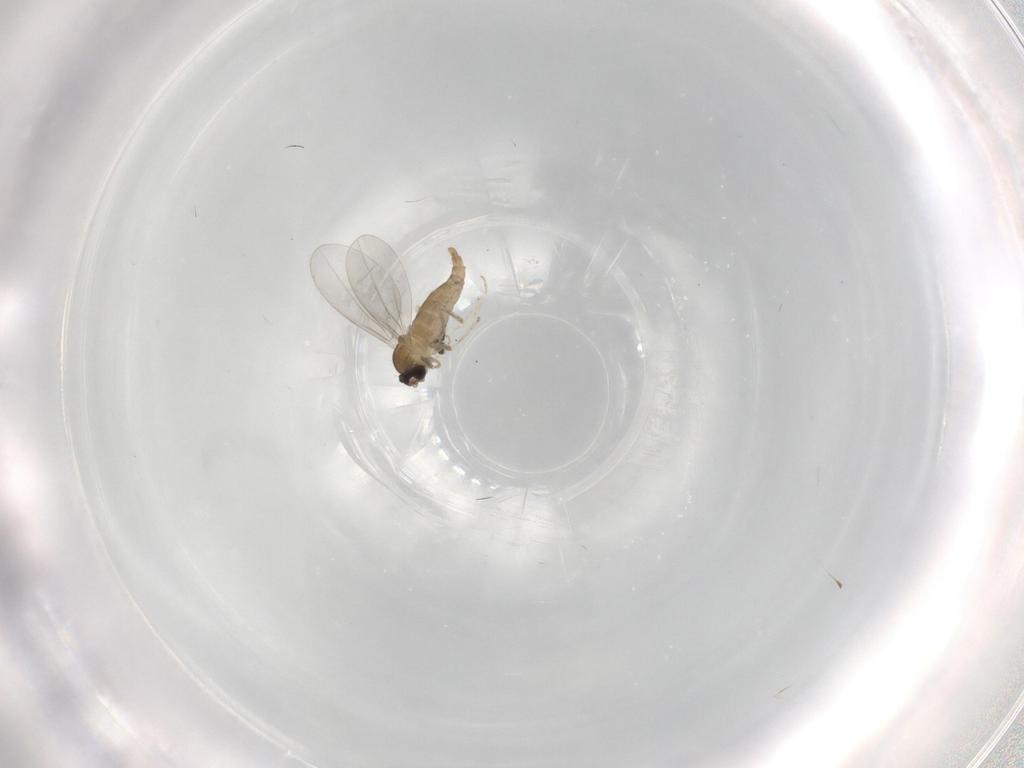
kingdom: Animalia
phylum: Arthropoda
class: Insecta
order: Diptera
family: Cecidomyiidae
